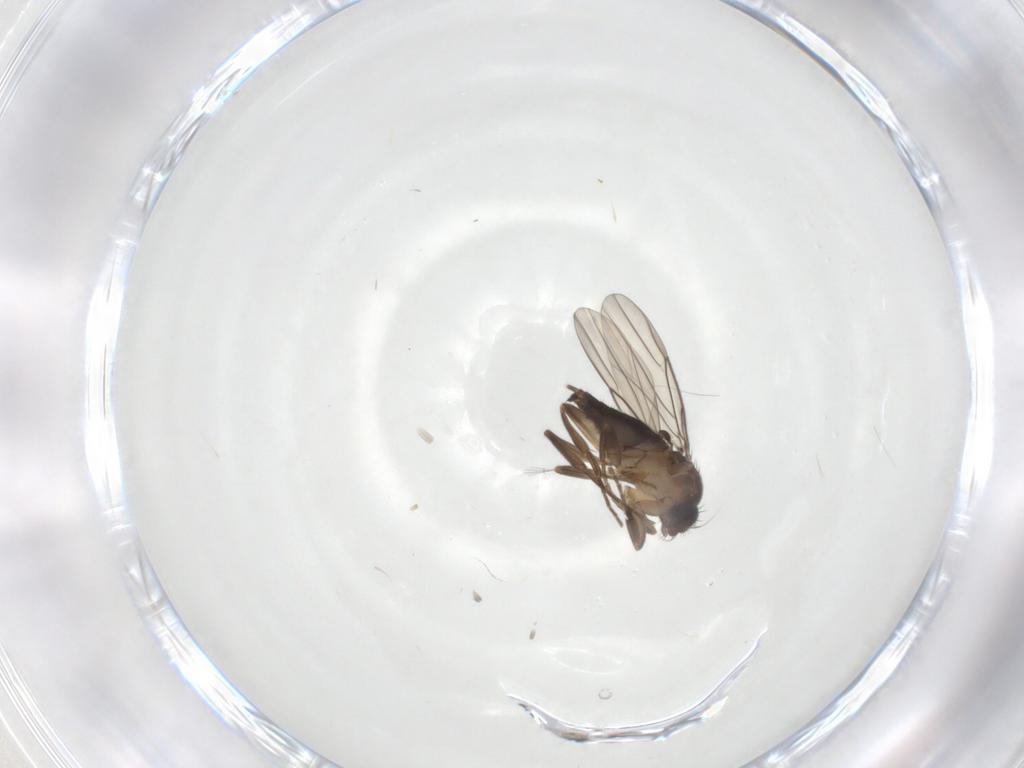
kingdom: Animalia
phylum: Arthropoda
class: Insecta
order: Diptera
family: Phoridae
